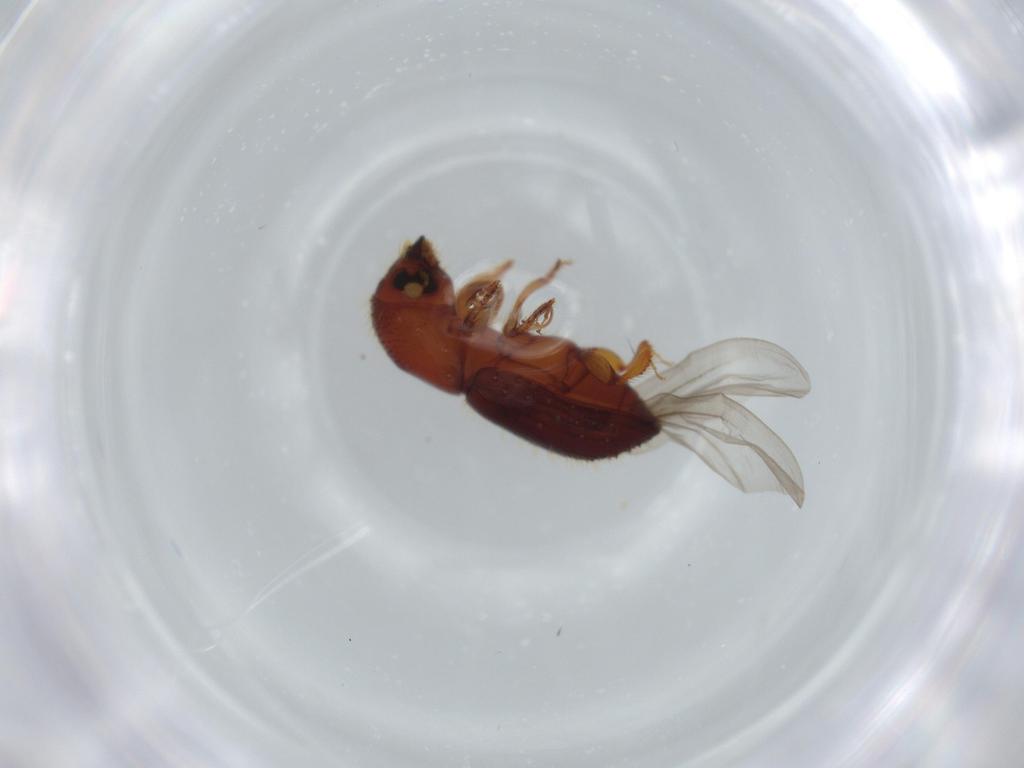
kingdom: Animalia
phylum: Arthropoda
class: Insecta
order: Coleoptera
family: Chrysomelidae
